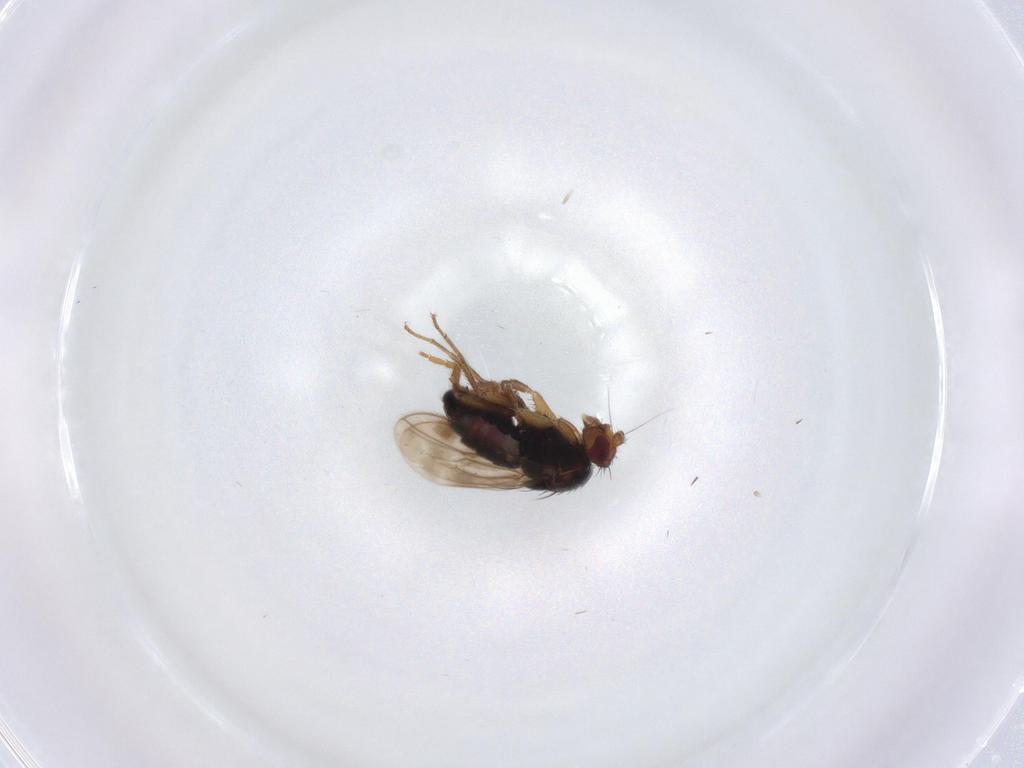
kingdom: Animalia
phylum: Arthropoda
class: Insecta
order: Diptera
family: Sphaeroceridae
